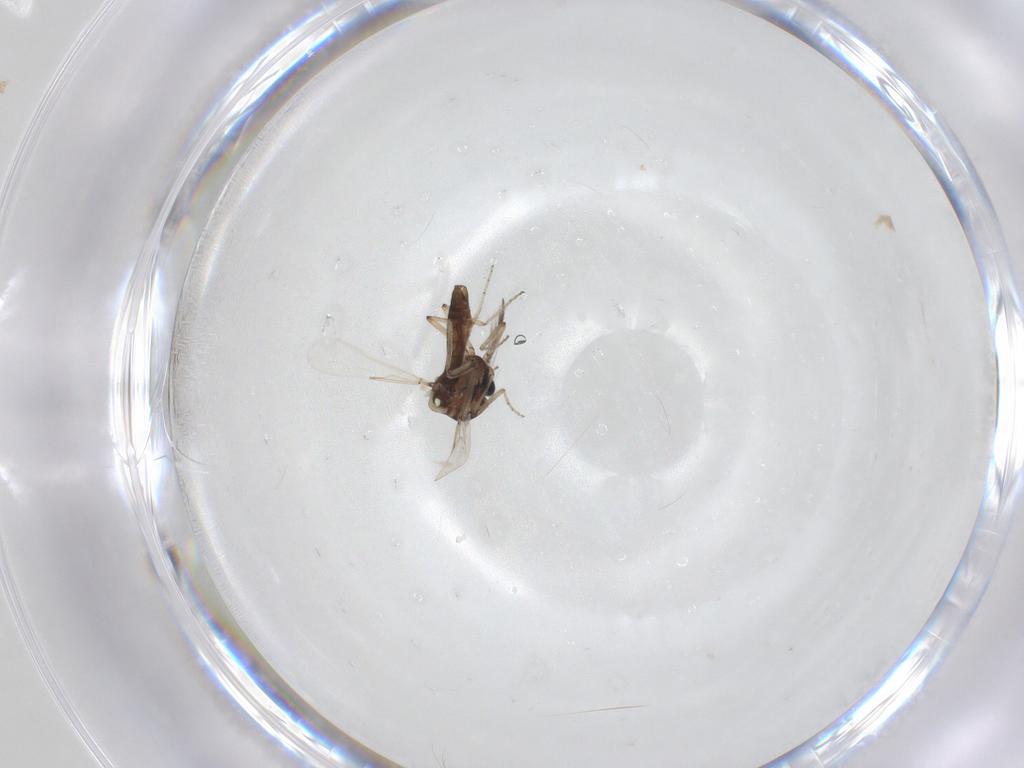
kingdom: Animalia
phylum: Arthropoda
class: Insecta
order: Diptera
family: Ceratopogonidae
